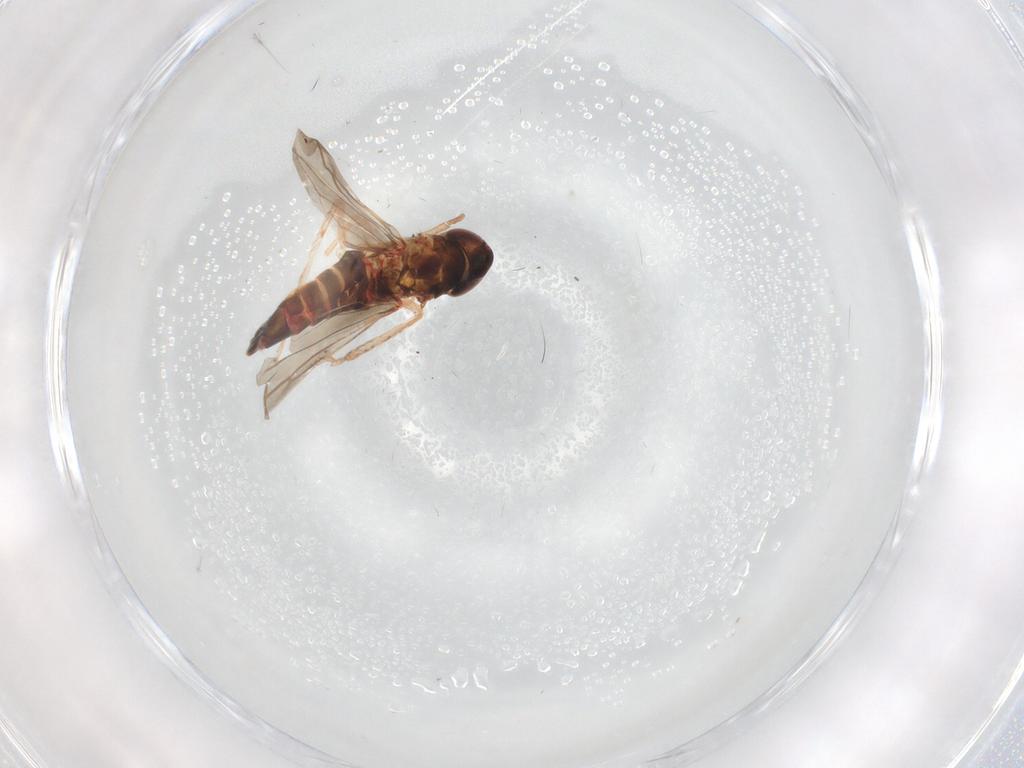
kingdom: Animalia
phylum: Arthropoda
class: Insecta
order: Hemiptera
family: Cicadellidae
